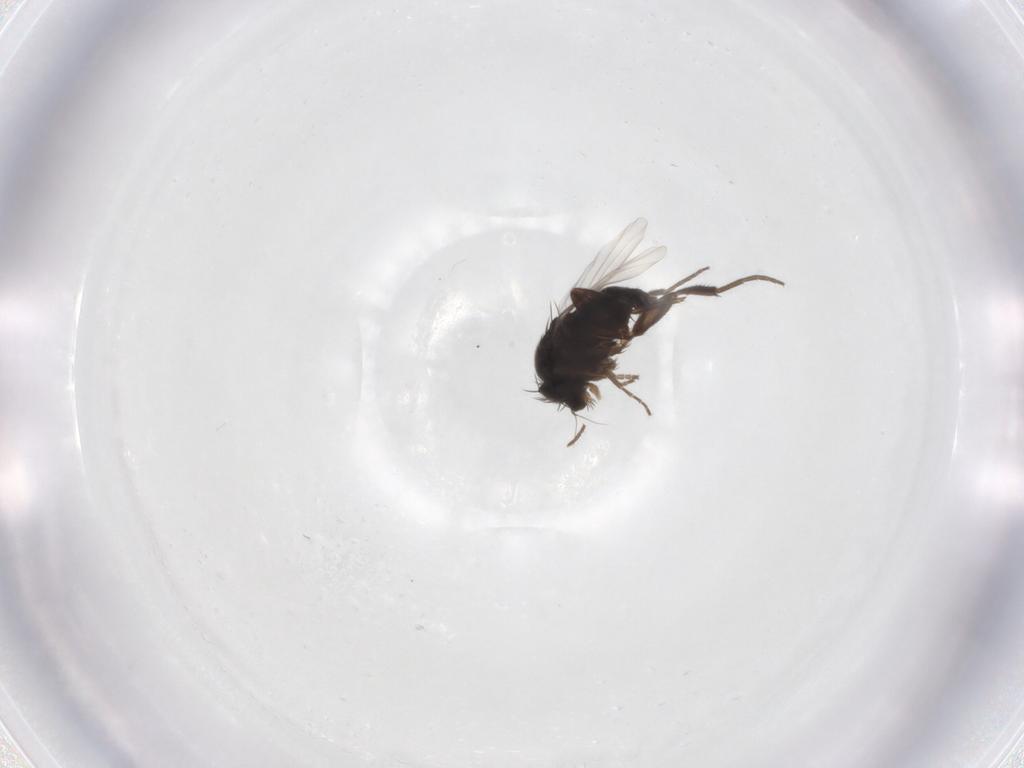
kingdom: Animalia
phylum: Arthropoda
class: Insecta
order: Diptera
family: Phoridae
